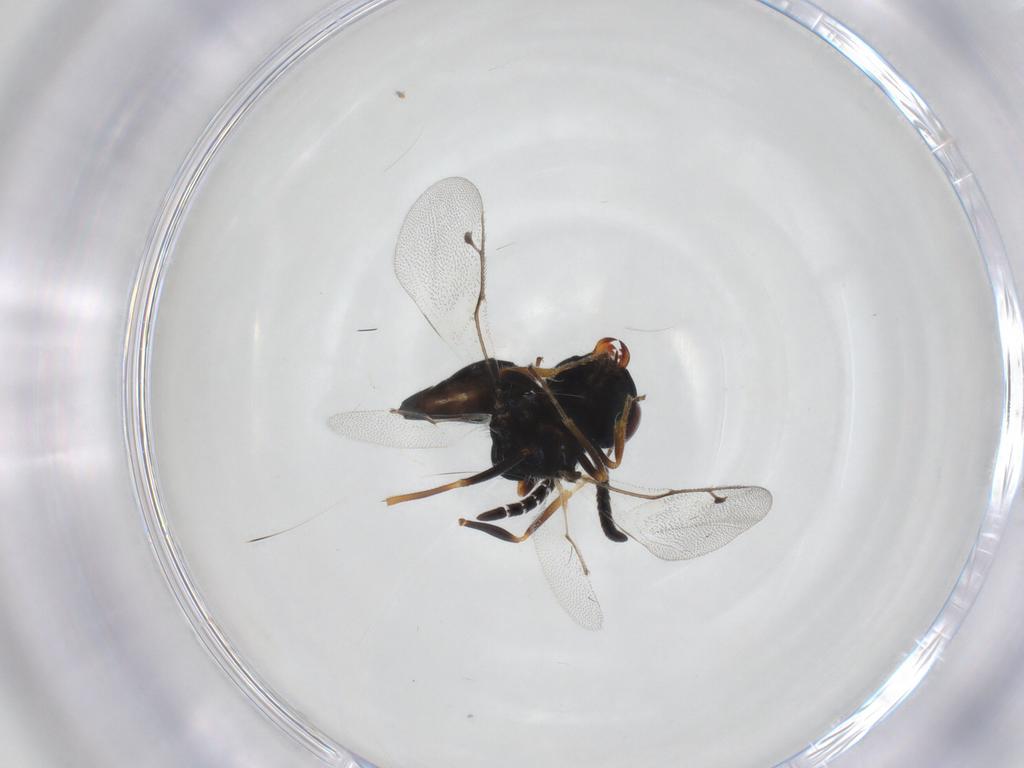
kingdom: Animalia
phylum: Arthropoda
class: Insecta
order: Hymenoptera
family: Pteromalidae
